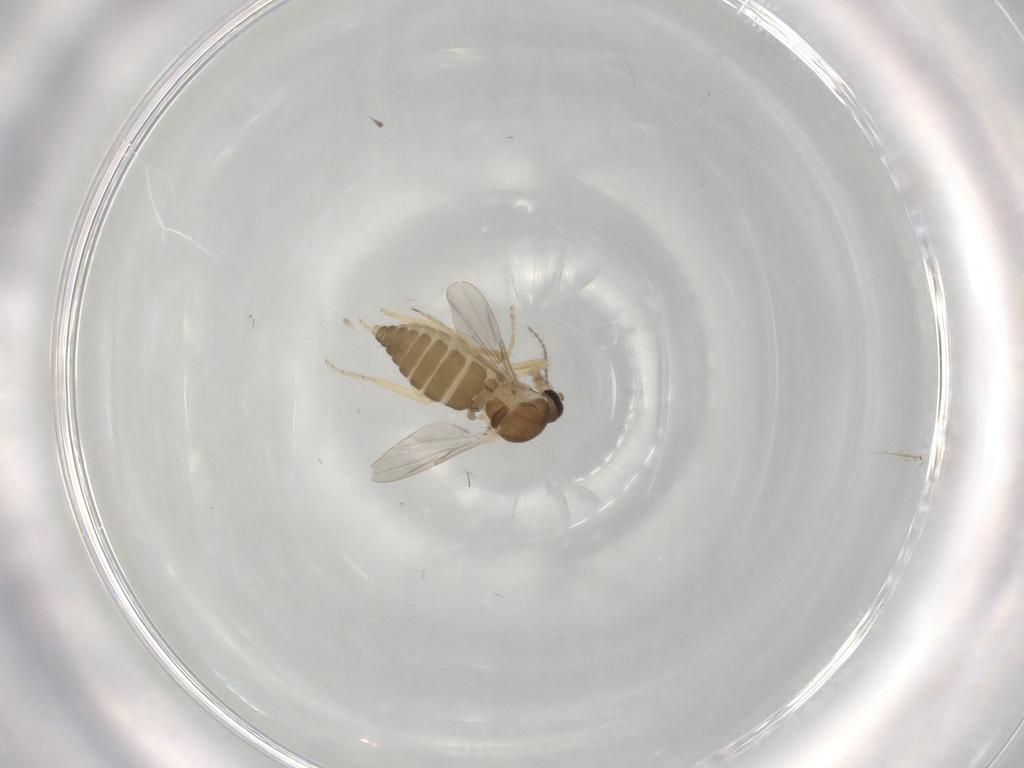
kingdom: Animalia
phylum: Arthropoda
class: Insecta
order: Diptera
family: Ceratopogonidae
